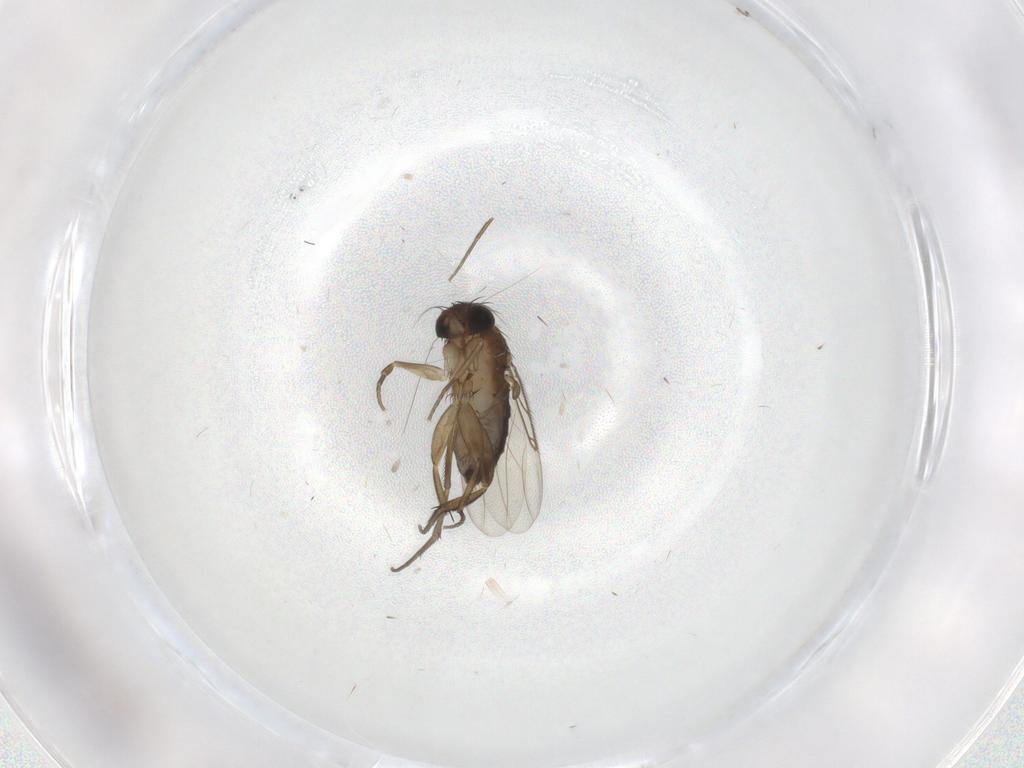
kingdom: Animalia
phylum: Arthropoda
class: Insecta
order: Diptera
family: Phoridae
